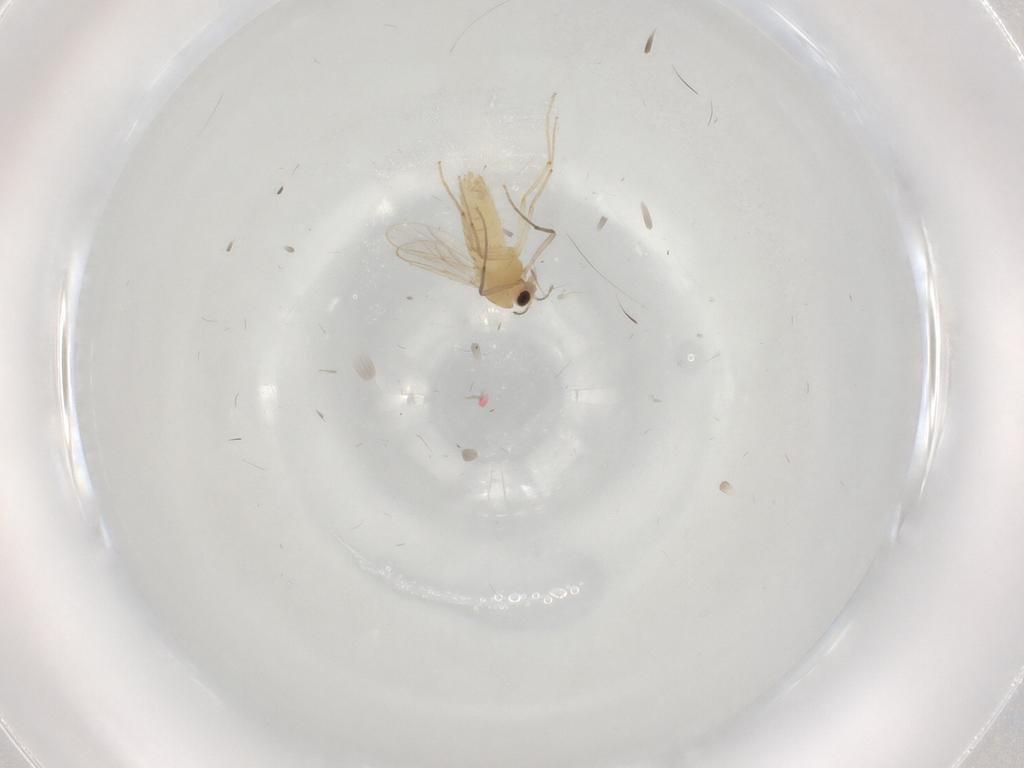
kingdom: Animalia
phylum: Arthropoda
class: Insecta
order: Diptera
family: Chironomidae
